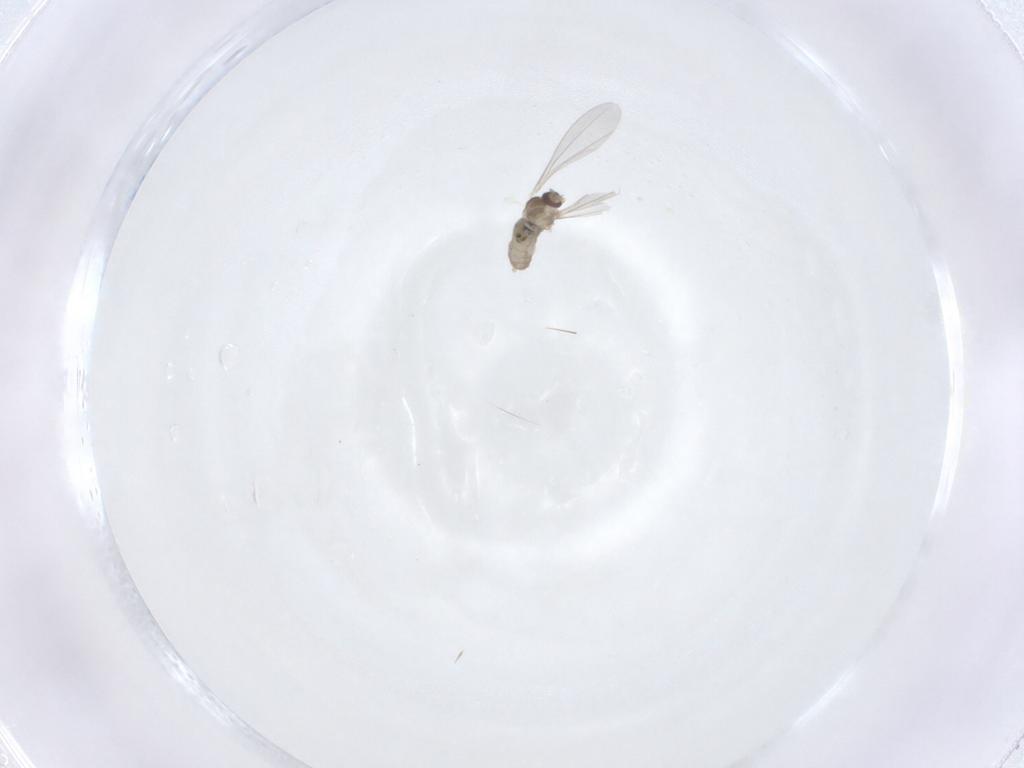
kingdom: Animalia
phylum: Arthropoda
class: Insecta
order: Diptera
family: Cecidomyiidae
